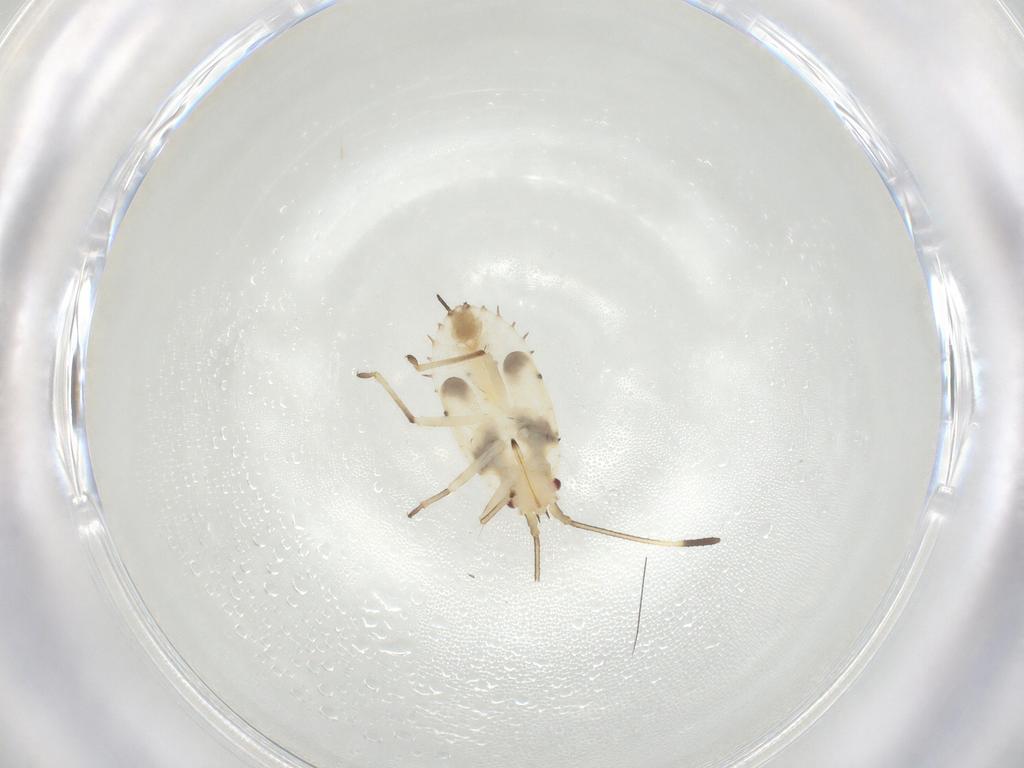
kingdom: Animalia
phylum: Arthropoda
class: Insecta
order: Hemiptera
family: Tingidae
